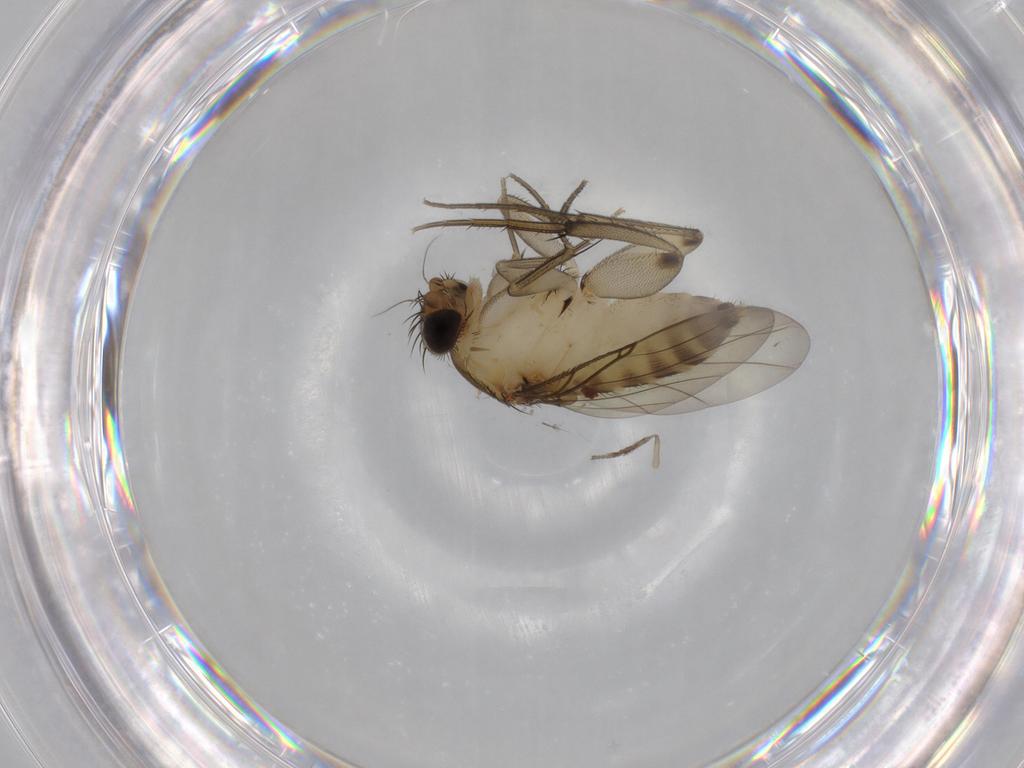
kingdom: Animalia
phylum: Arthropoda
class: Insecta
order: Diptera
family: Phoridae
